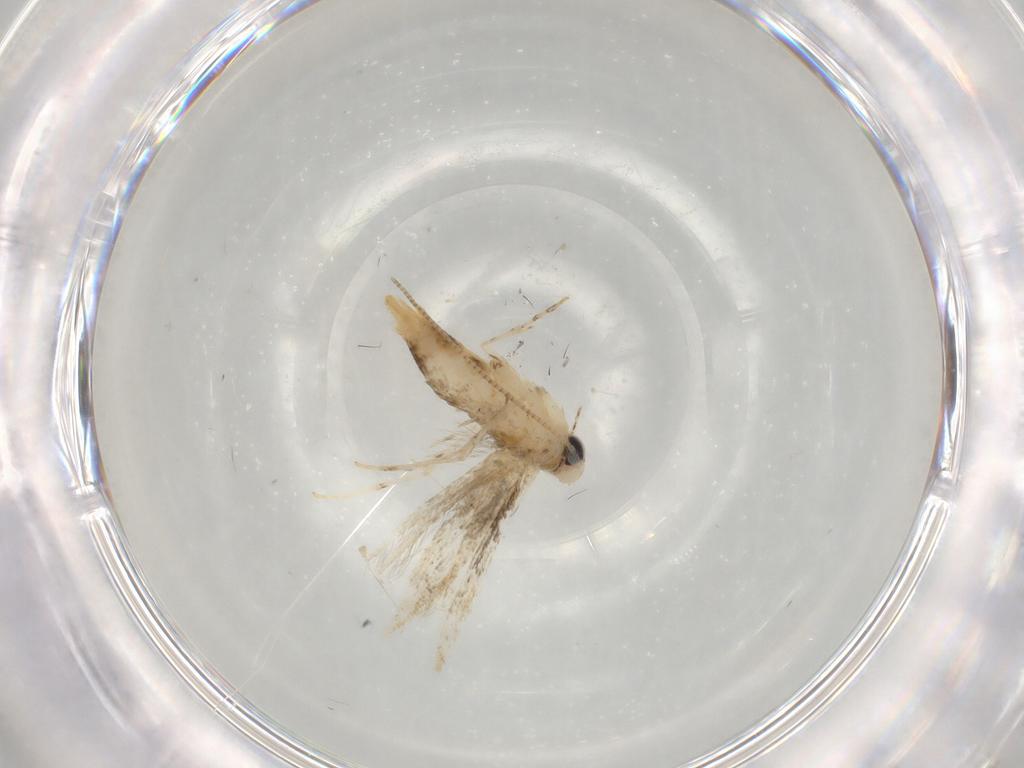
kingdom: Animalia
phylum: Arthropoda
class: Insecta
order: Lepidoptera
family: Gracillariidae
